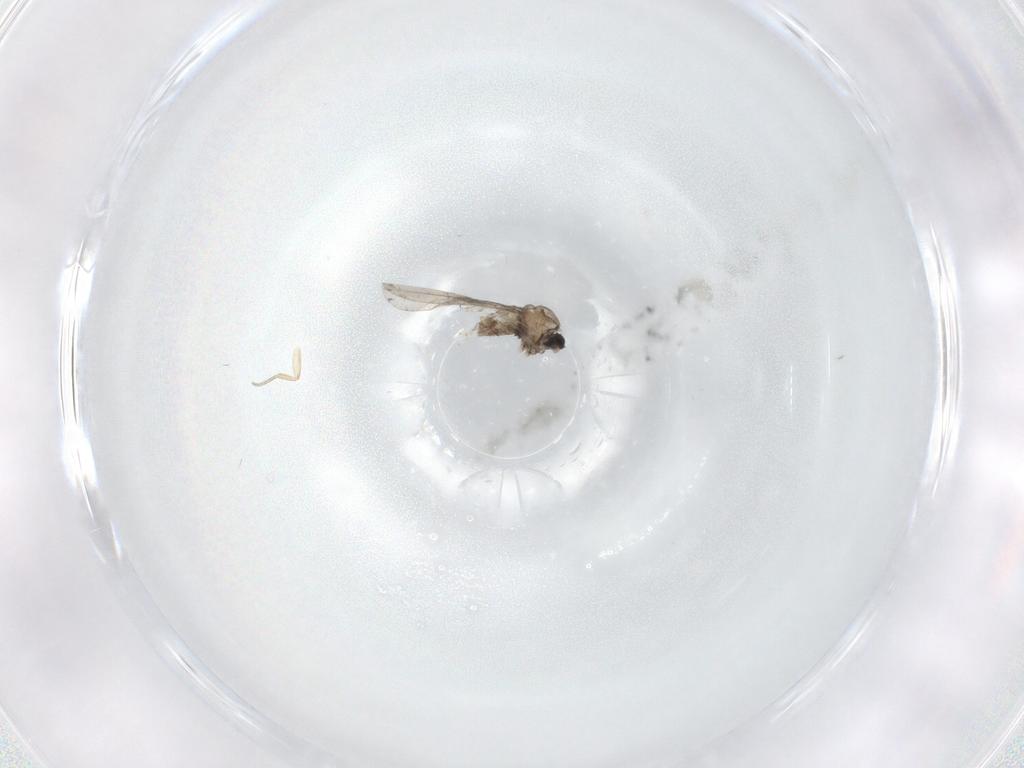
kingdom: Animalia
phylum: Arthropoda
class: Insecta
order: Diptera
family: Cecidomyiidae
